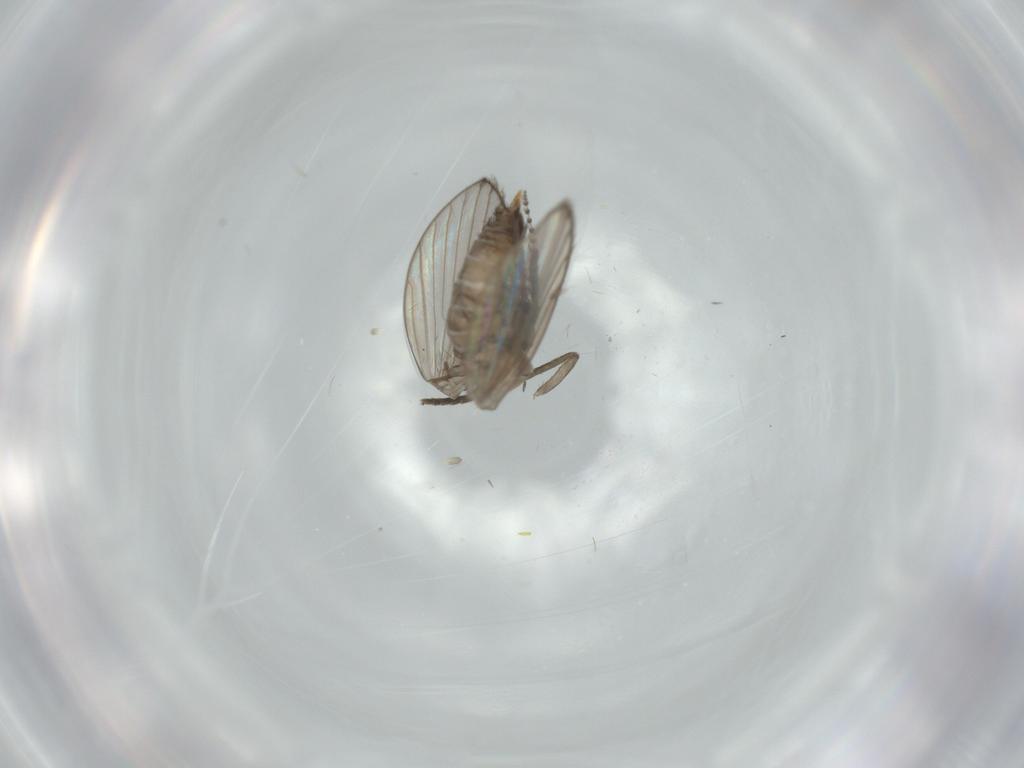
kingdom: Animalia
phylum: Arthropoda
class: Insecta
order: Diptera
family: Psychodidae
